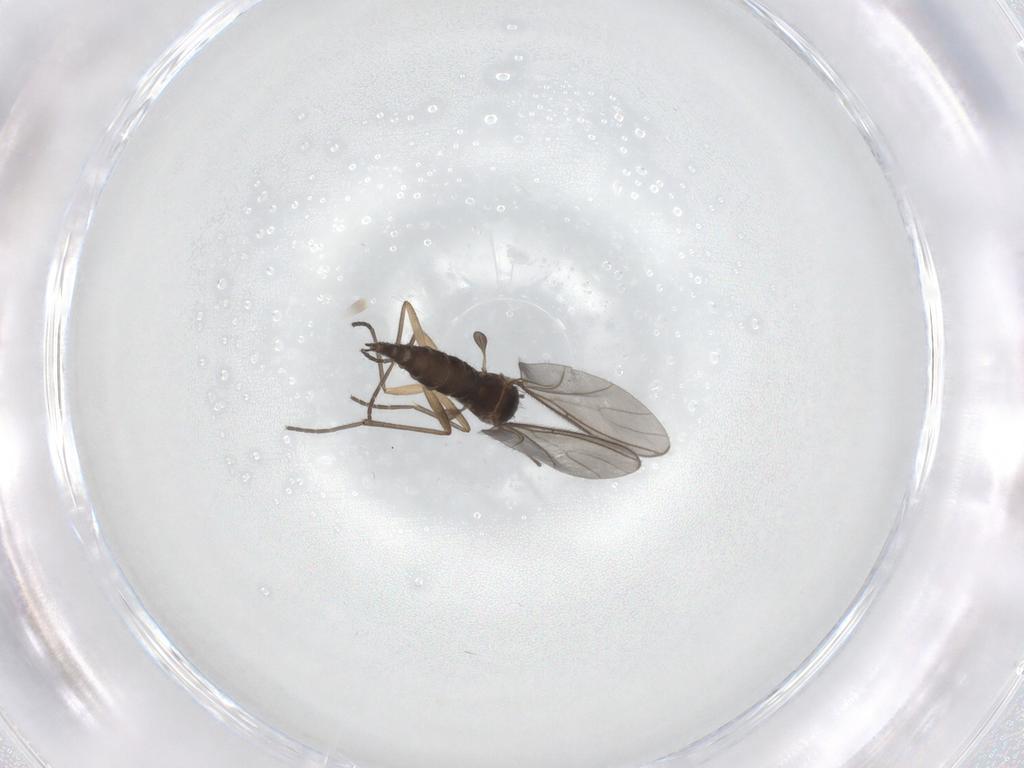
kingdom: Animalia
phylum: Arthropoda
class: Insecta
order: Diptera
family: Sciaridae
